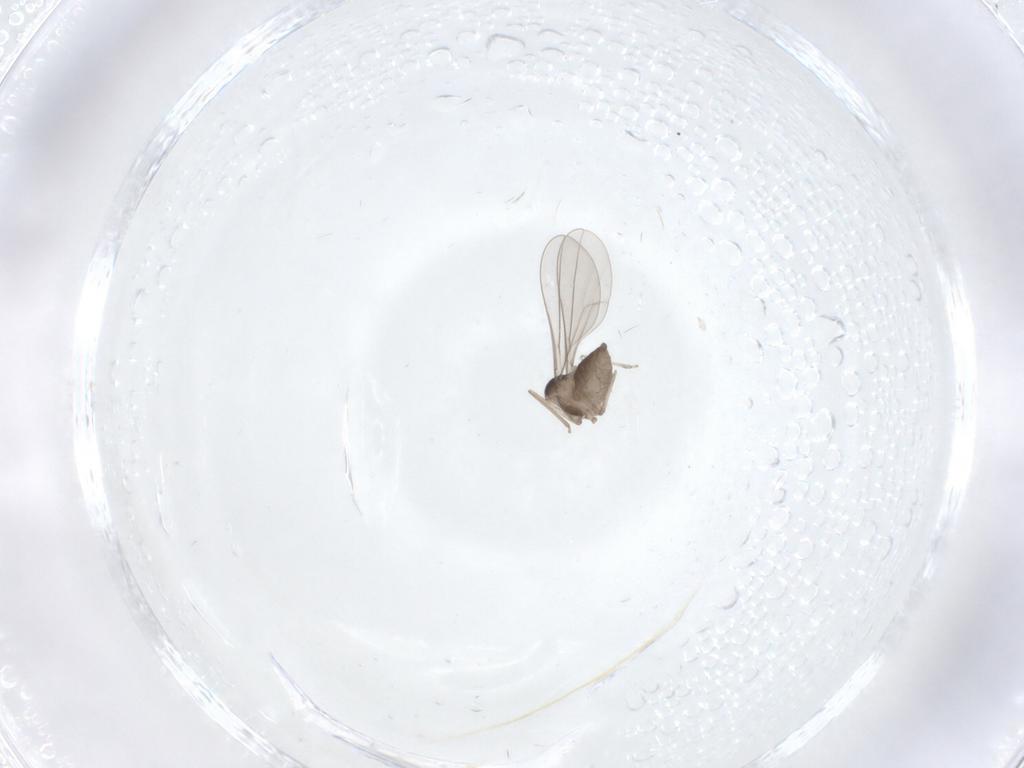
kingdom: Animalia
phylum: Arthropoda
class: Insecta
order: Diptera
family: Cecidomyiidae
